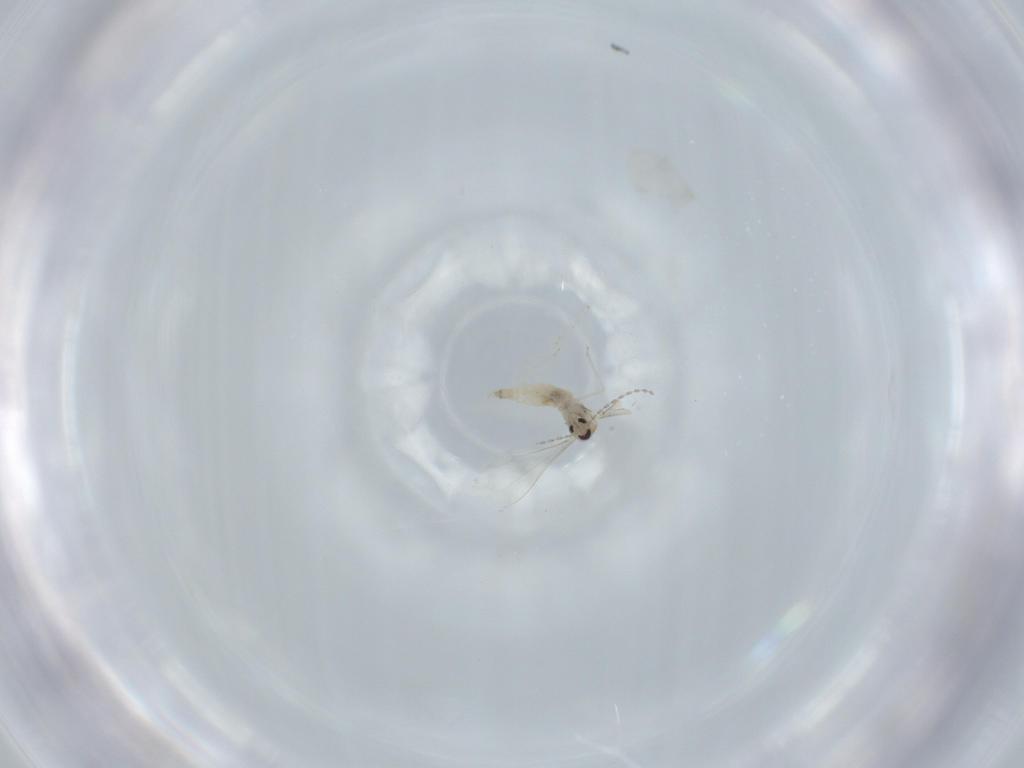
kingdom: Animalia
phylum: Arthropoda
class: Insecta
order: Diptera
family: Cecidomyiidae
